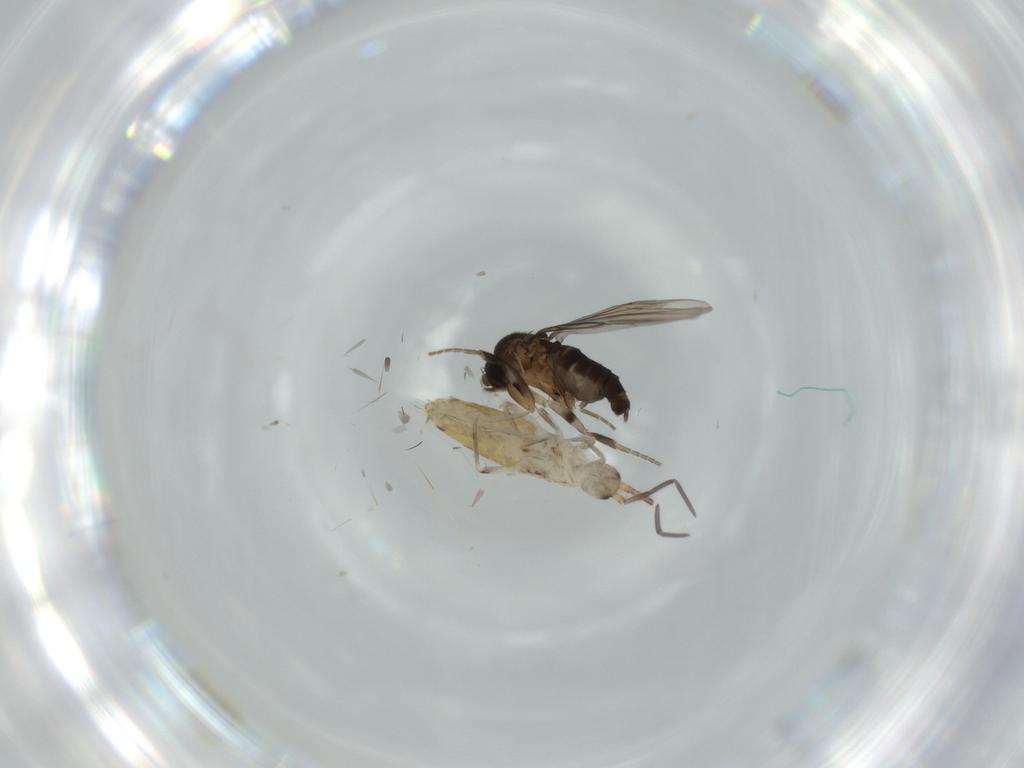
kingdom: Animalia
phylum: Arthropoda
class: Collembola
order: Entomobryomorpha
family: Entomobryidae
